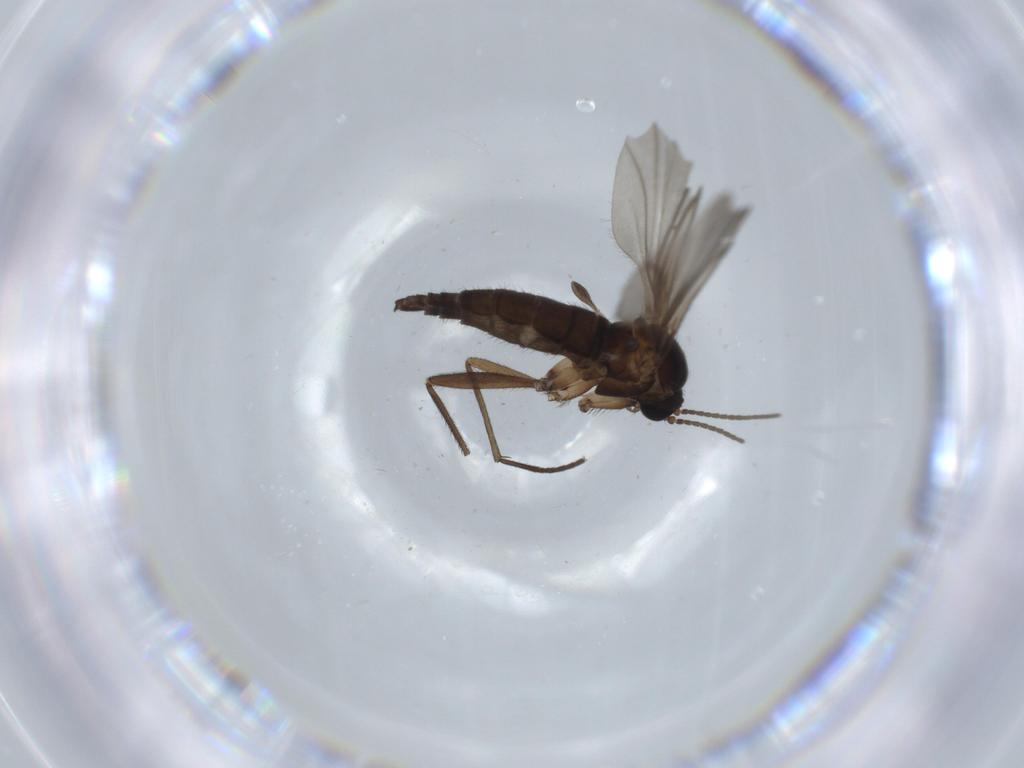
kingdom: Animalia
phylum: Arthropoda
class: Insecta
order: Diptera
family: Sciaridae
